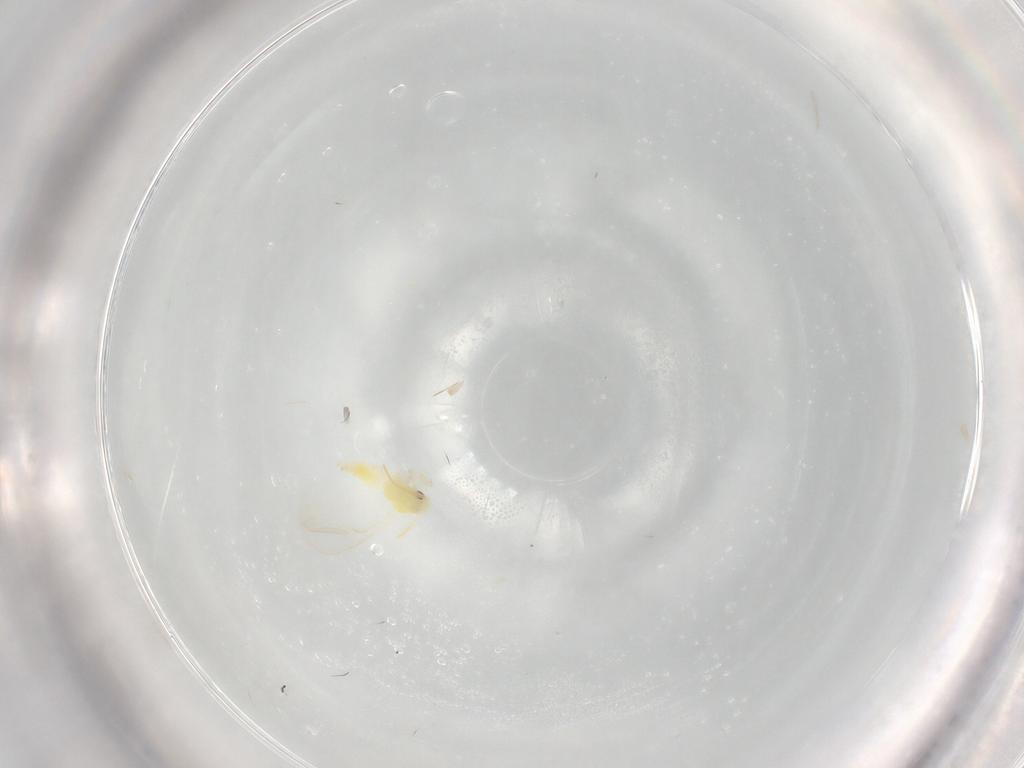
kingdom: Animalia
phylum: Arthropoda
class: Insecta
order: Hemiptera
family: Aleyrodidae
